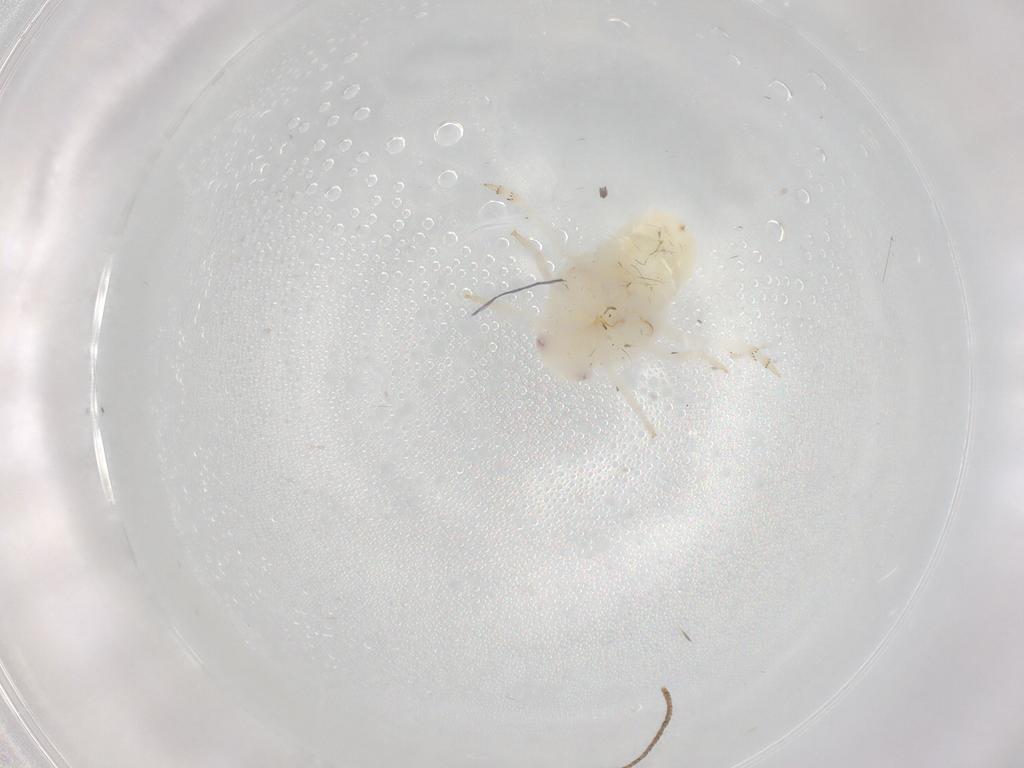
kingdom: Animalia
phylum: Arthropoda
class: Insecta
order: Hemiptera
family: Flatidae
